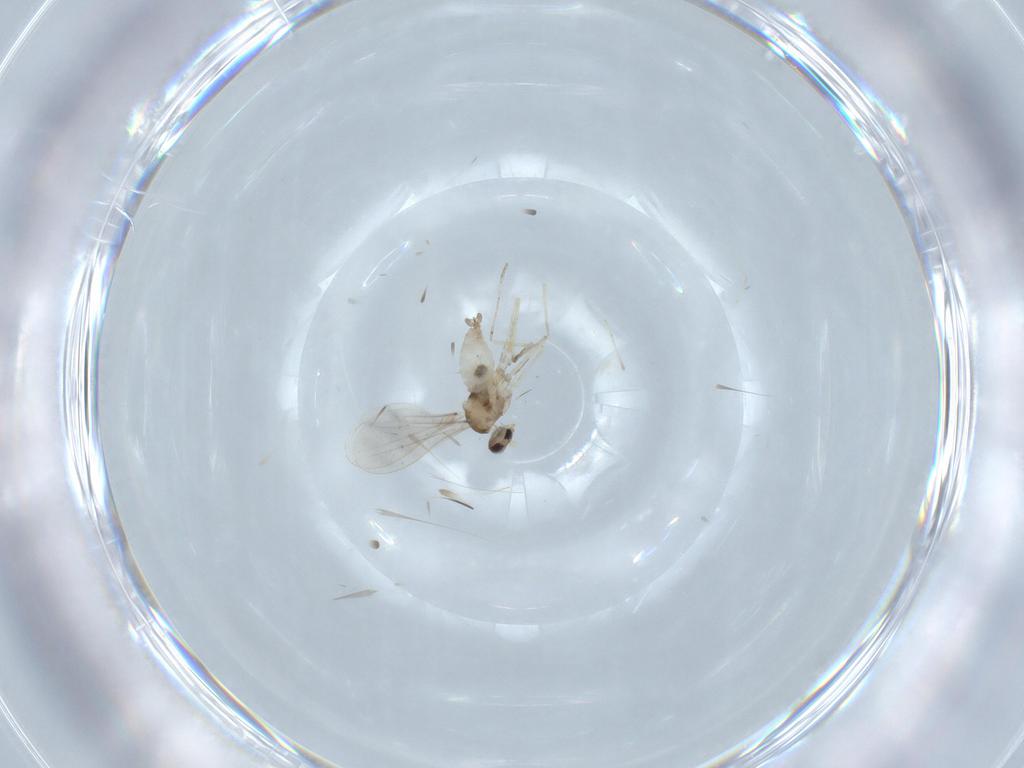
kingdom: Animalia
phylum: Arthropoda
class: Insecta
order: Diptera
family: Cecidomyiidae
